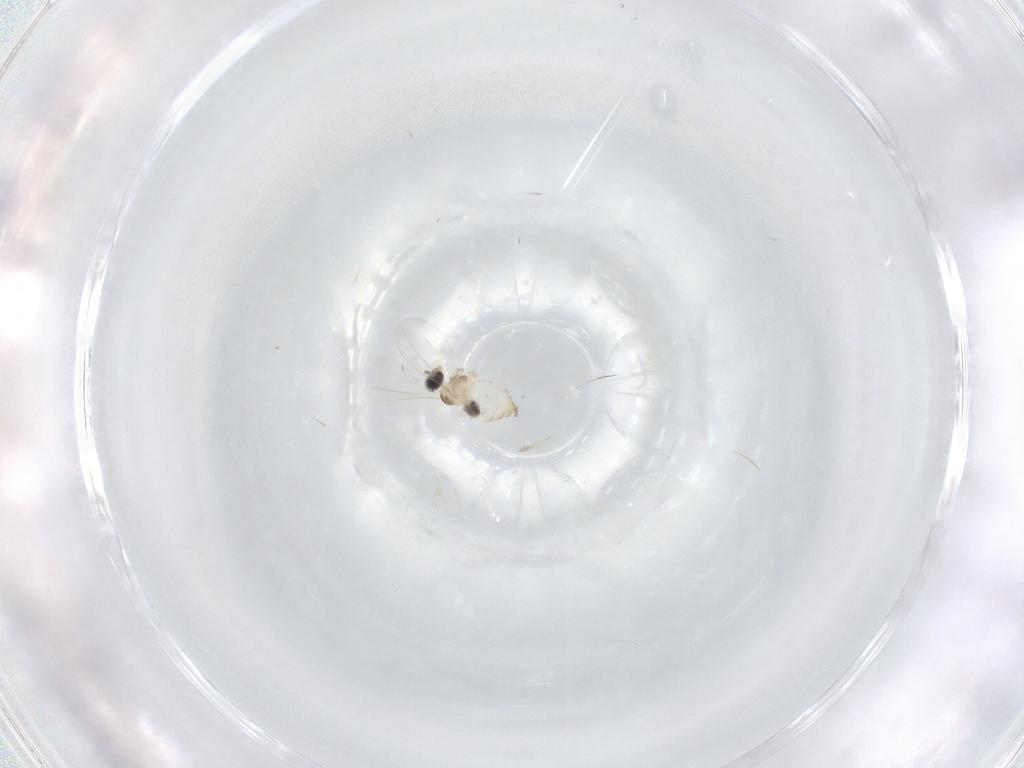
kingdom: Animalia
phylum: Arthropoda
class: Insecta
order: Diptera
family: Cecidomyiidae
